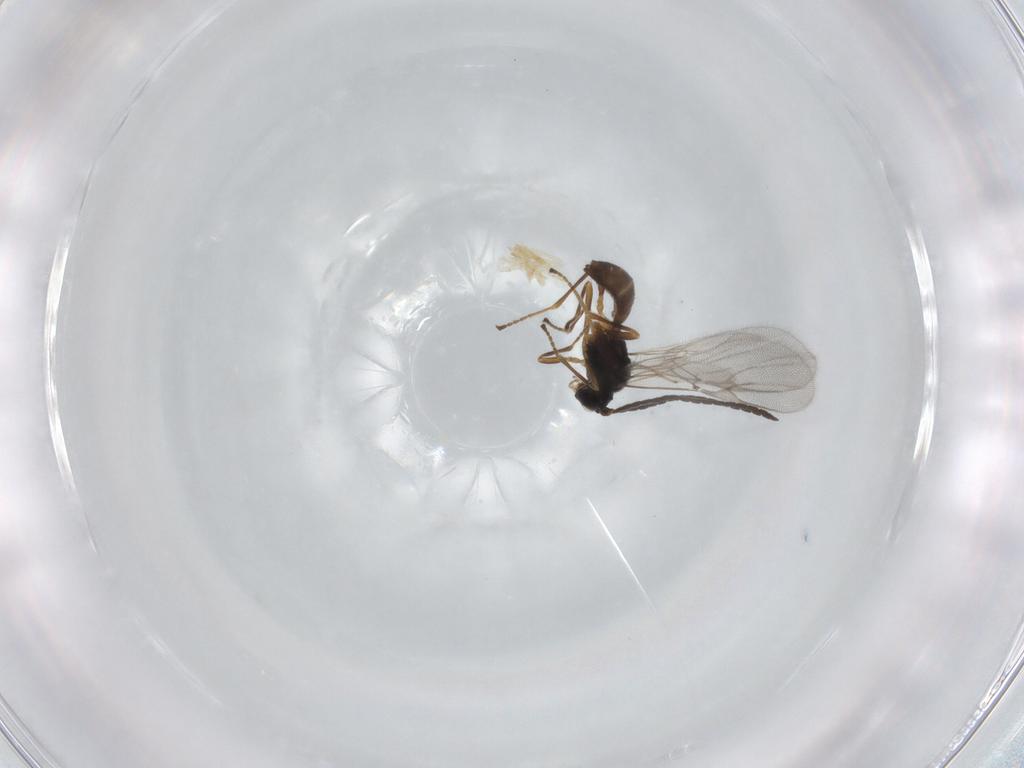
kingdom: Animalia
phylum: Arthropoda
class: Insecta
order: Hymenoptera
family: Braconidae
